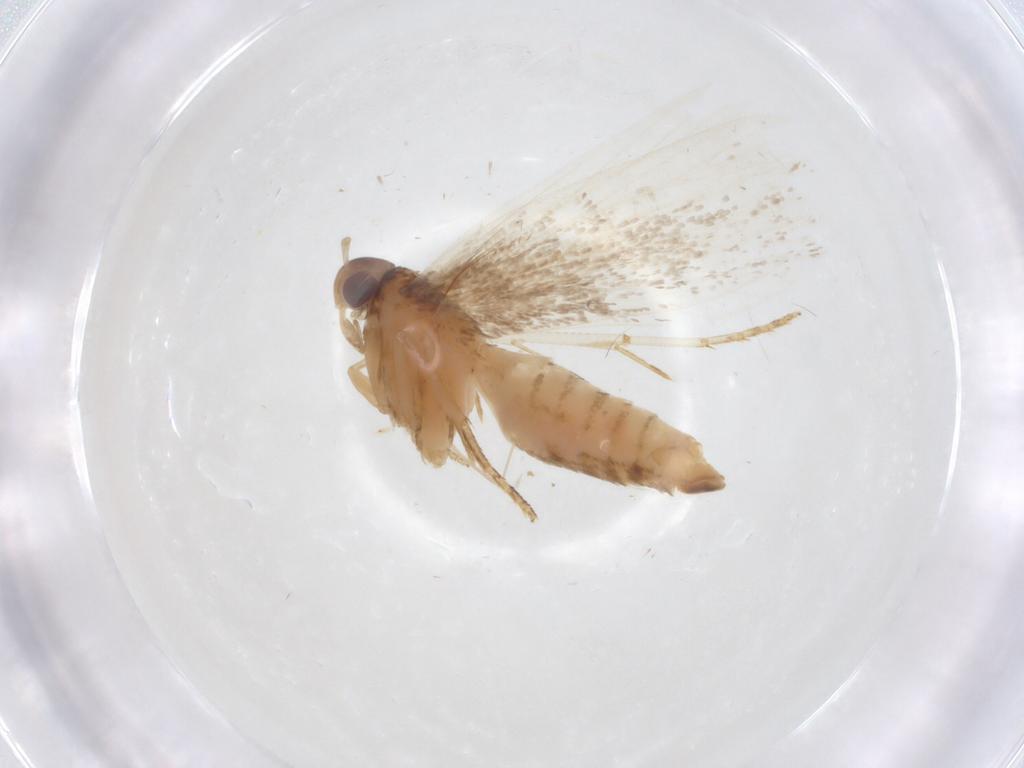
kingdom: Animalia
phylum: Arthropoda
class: Insecta
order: Lepidoptera
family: Gelechiidae
